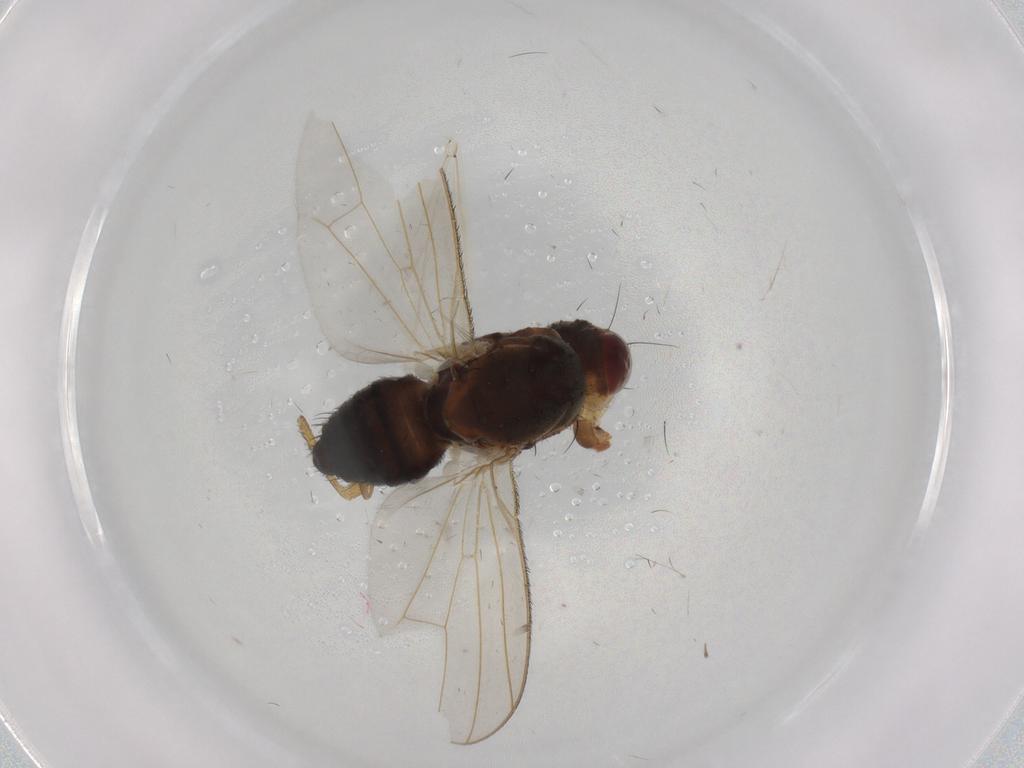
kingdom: Animalia
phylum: Arthropoda
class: Insecta
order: Diptera
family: Heleomyzidae
